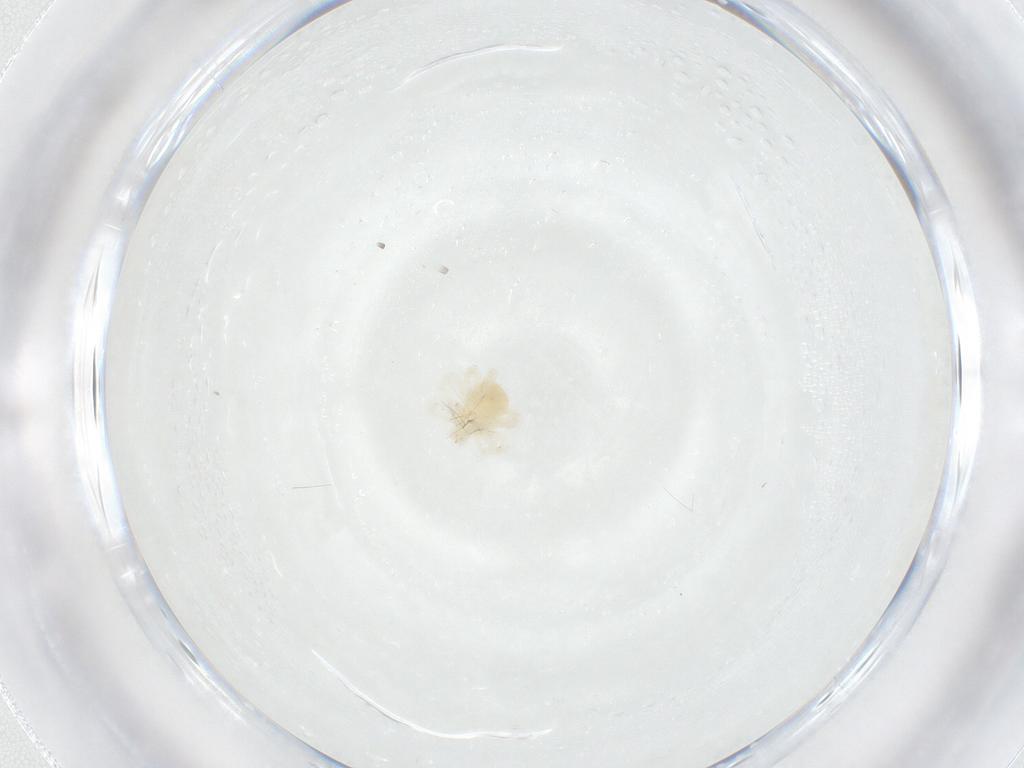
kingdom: Animalia
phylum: Arthropoda
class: Arachnida
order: Trombidiformes
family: Anystidae
